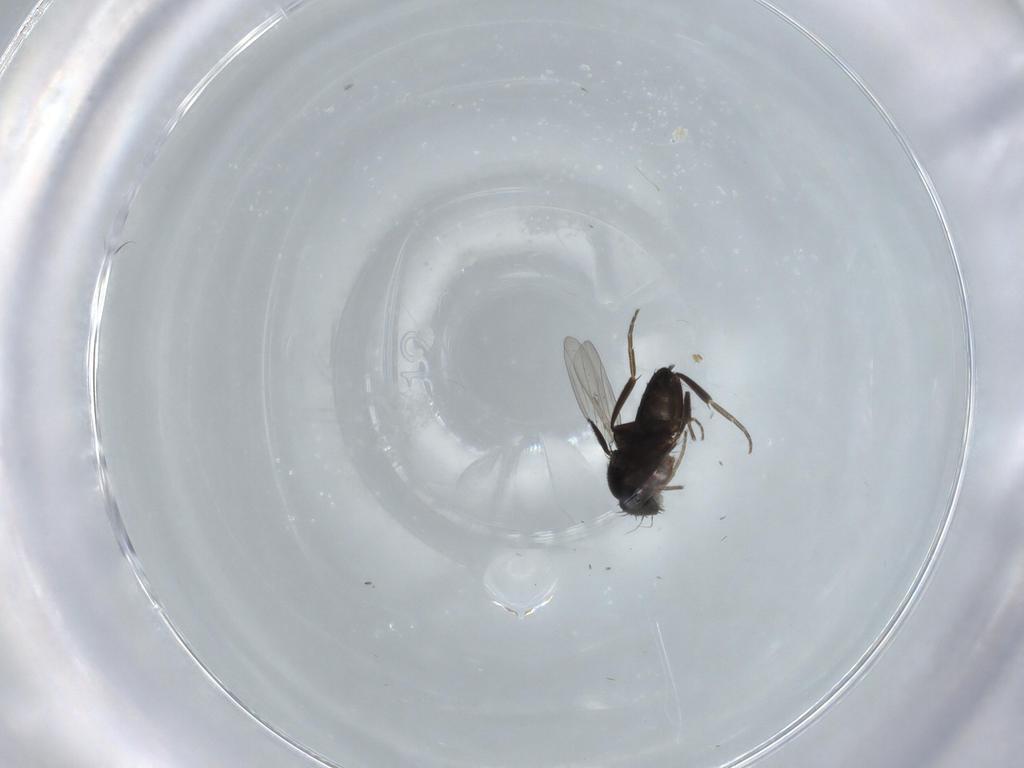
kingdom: Animalia
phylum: Arthropoda
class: Insecta
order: Diptera
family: Phoridae
